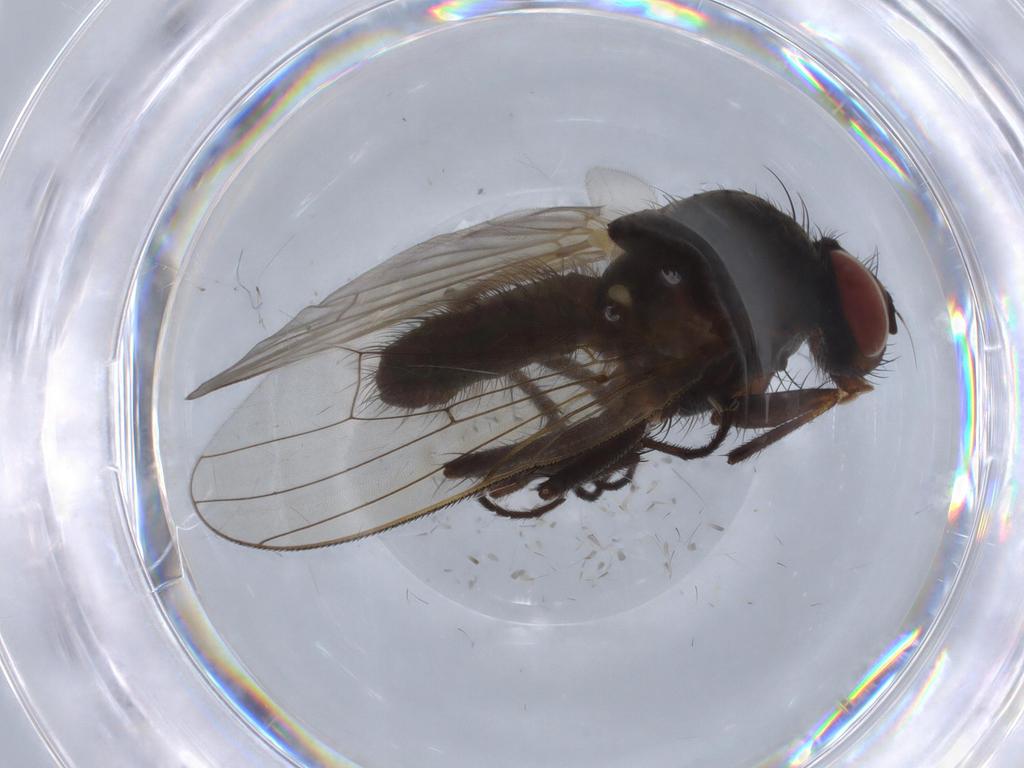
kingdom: Animalia
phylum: Arthropoda
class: Insecta
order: Diptera
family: Anthomyiidae
